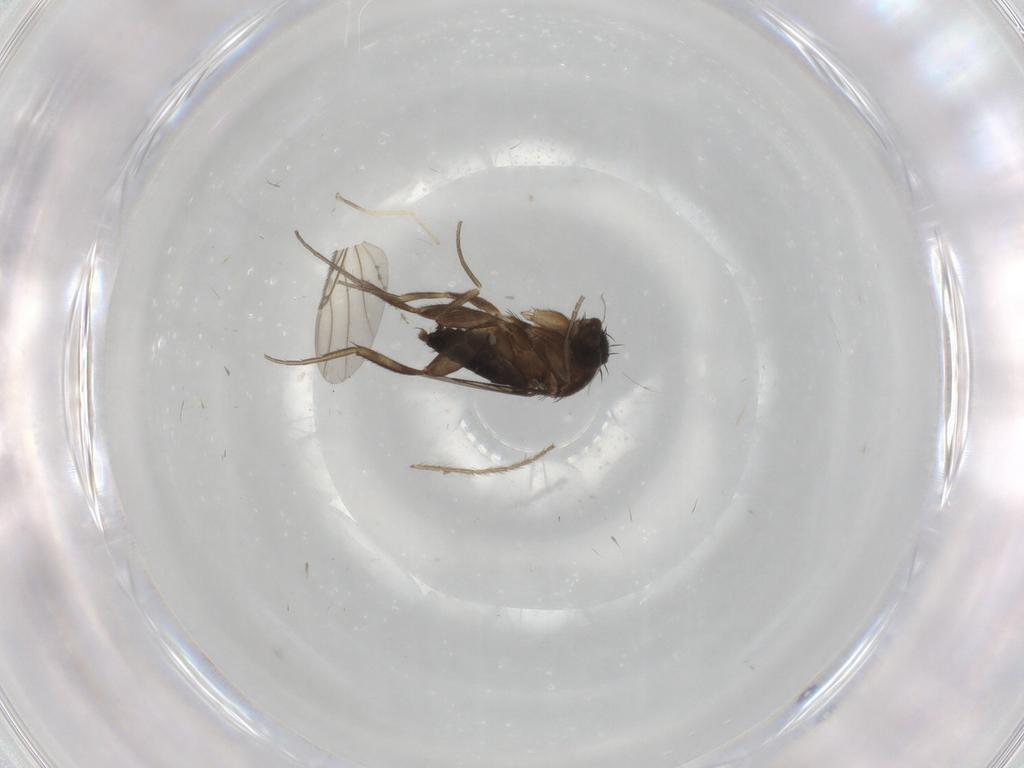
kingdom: Animalia
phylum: Arthropoda
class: Insecta
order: Diptera
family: Phoridae
